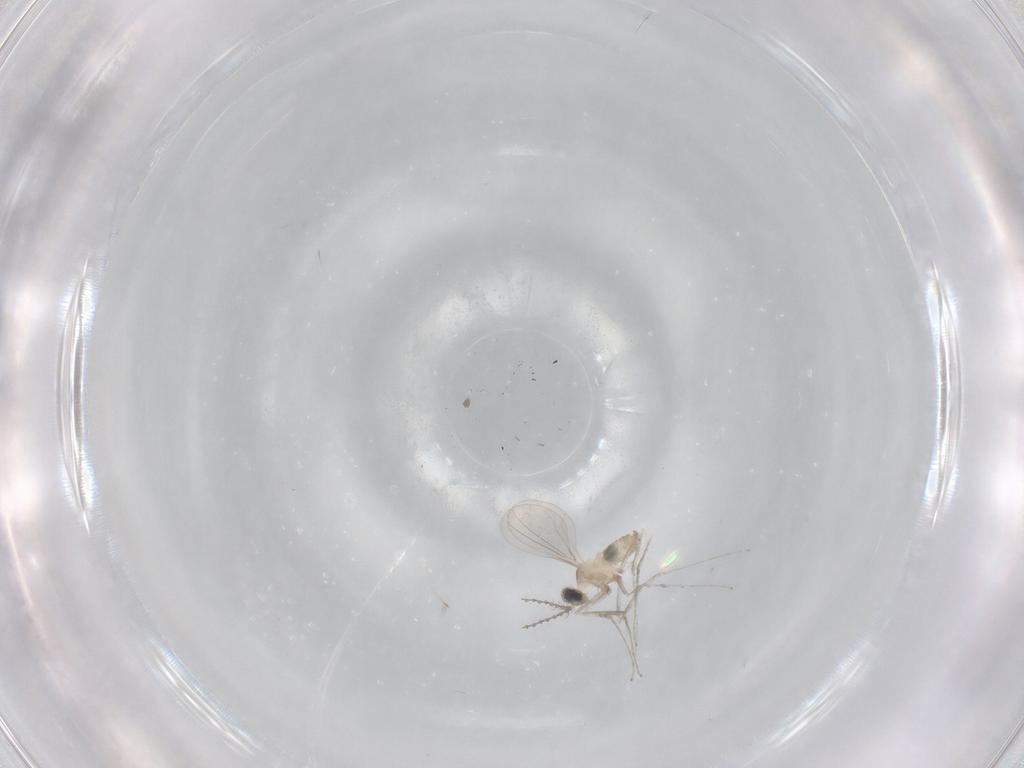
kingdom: Animalia
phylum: Arthropoda
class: Insecta
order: Diptera
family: Cecidomyiidae
